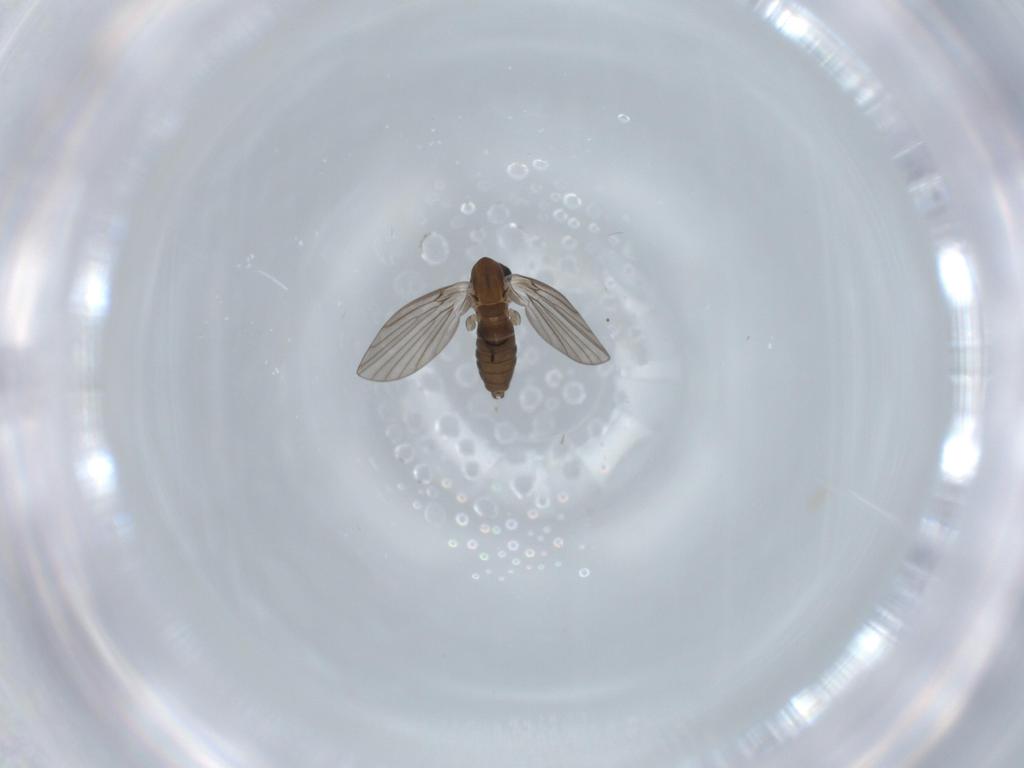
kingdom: Animalia
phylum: Arthropoda
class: Insecta
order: Diptera
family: Psychodidae
